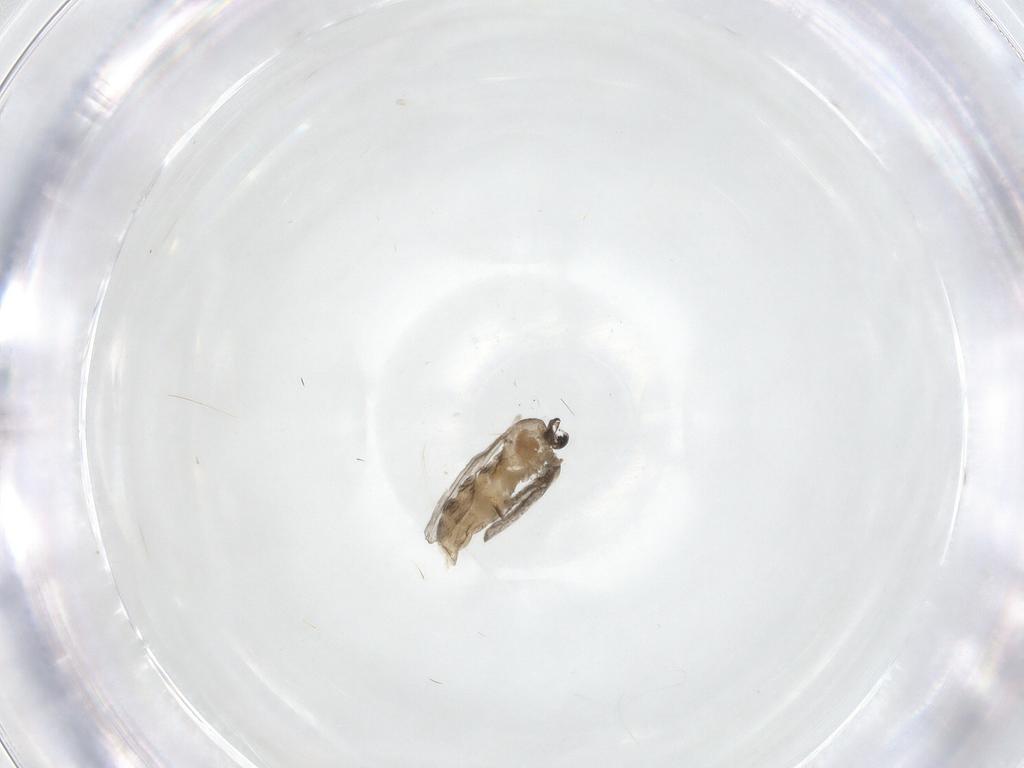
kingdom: Animalia
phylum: Arthropoda
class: Insecta
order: Diptera
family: Cecidomyiidae
